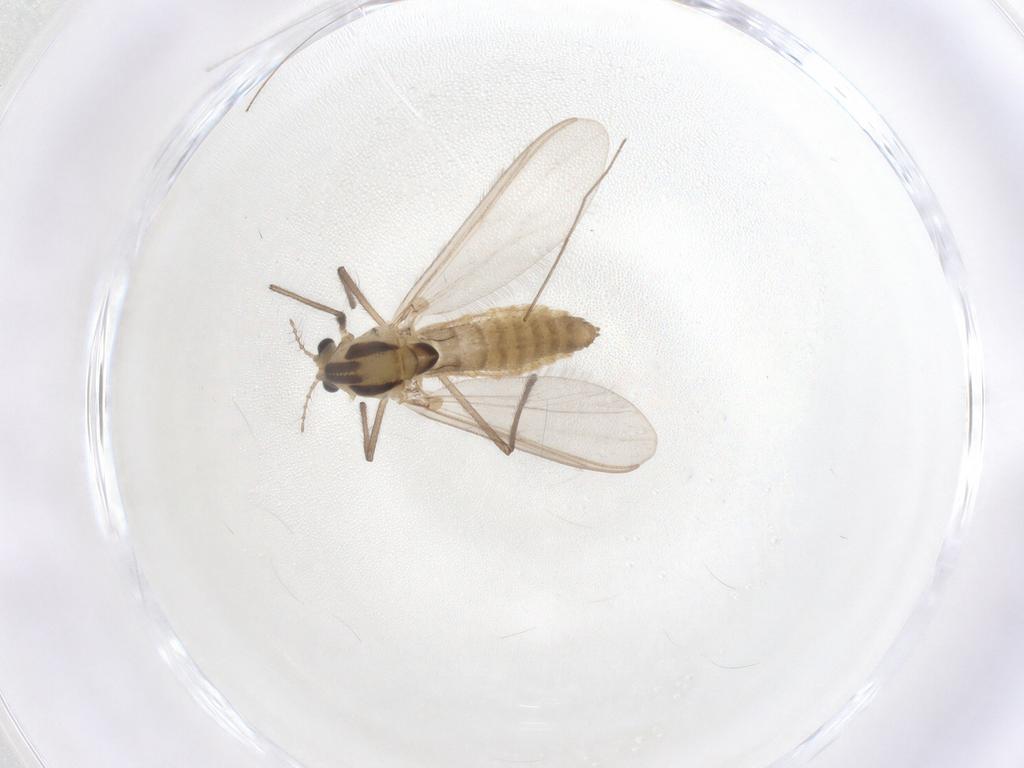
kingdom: Animalia
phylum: Arthropoda
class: Insecta
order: Diptera
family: Chironomidae
